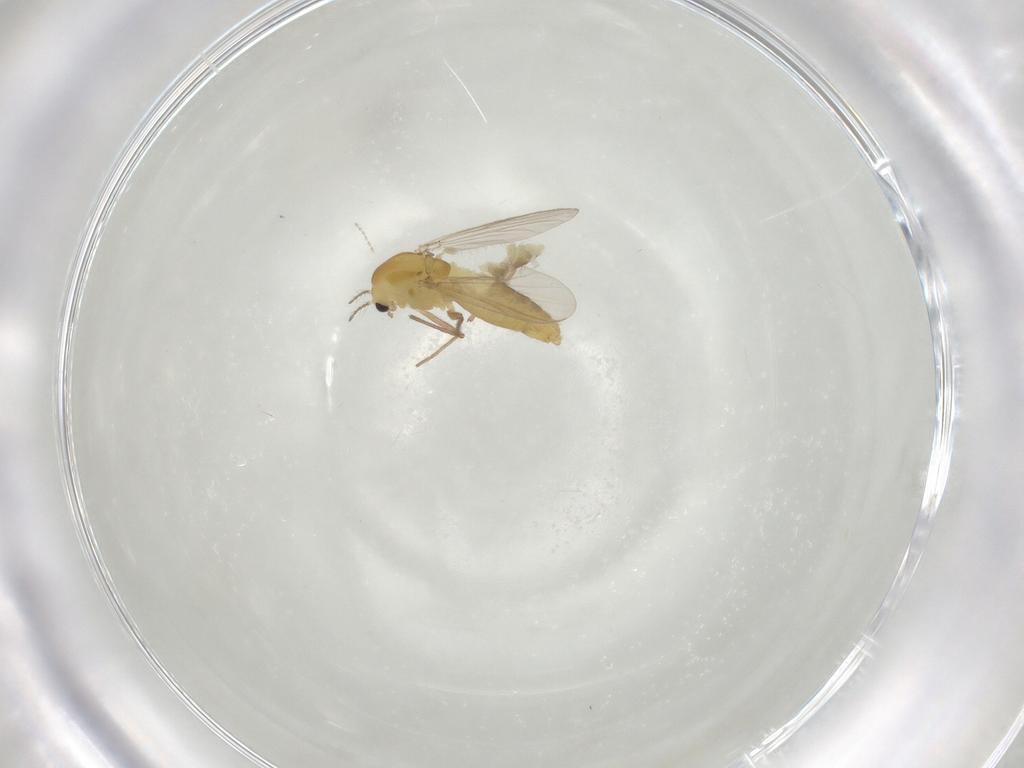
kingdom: Animalia
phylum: Arthropoda
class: Insecta
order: Diptera
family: Chironomidae
